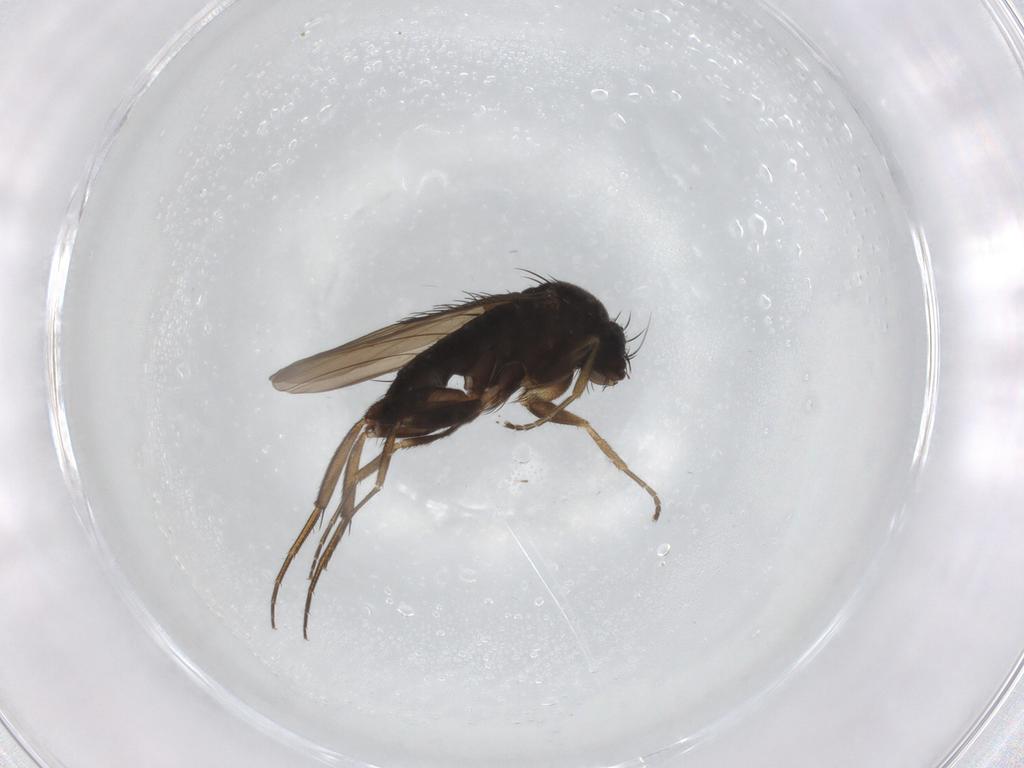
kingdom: Animalia
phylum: Arthropoda
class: Insecta
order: Diptera
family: Phoridae
